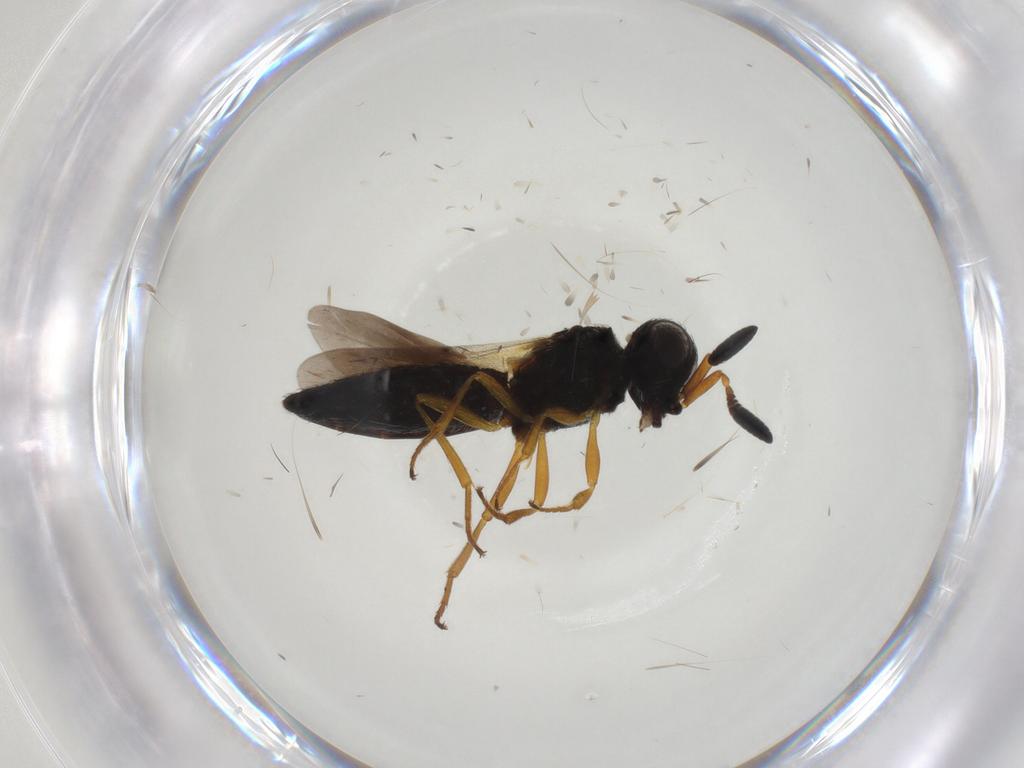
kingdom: Animalia
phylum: Arthropoda
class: Insecta
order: Hymenoptera
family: Scelionidae
